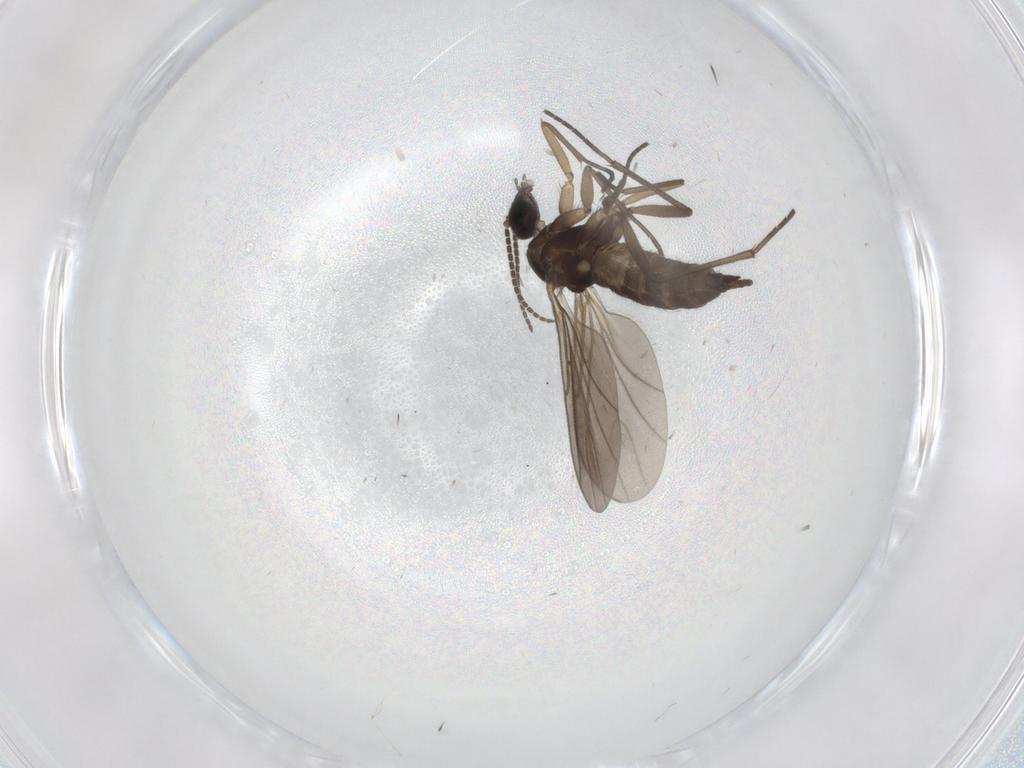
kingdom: Animalia
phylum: Arthropoda
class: Insecta
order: Diptera
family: Sciaridae
